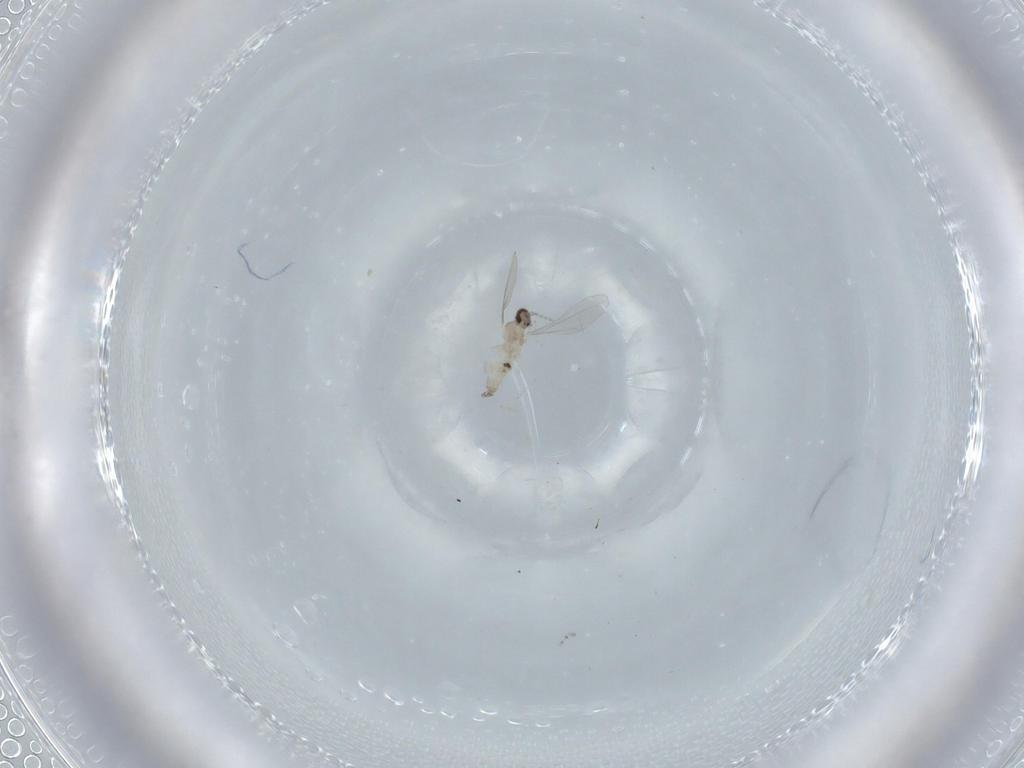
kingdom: Animalia
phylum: Arthropoda
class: Insecta
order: Diptera
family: Cecidomyiidae
